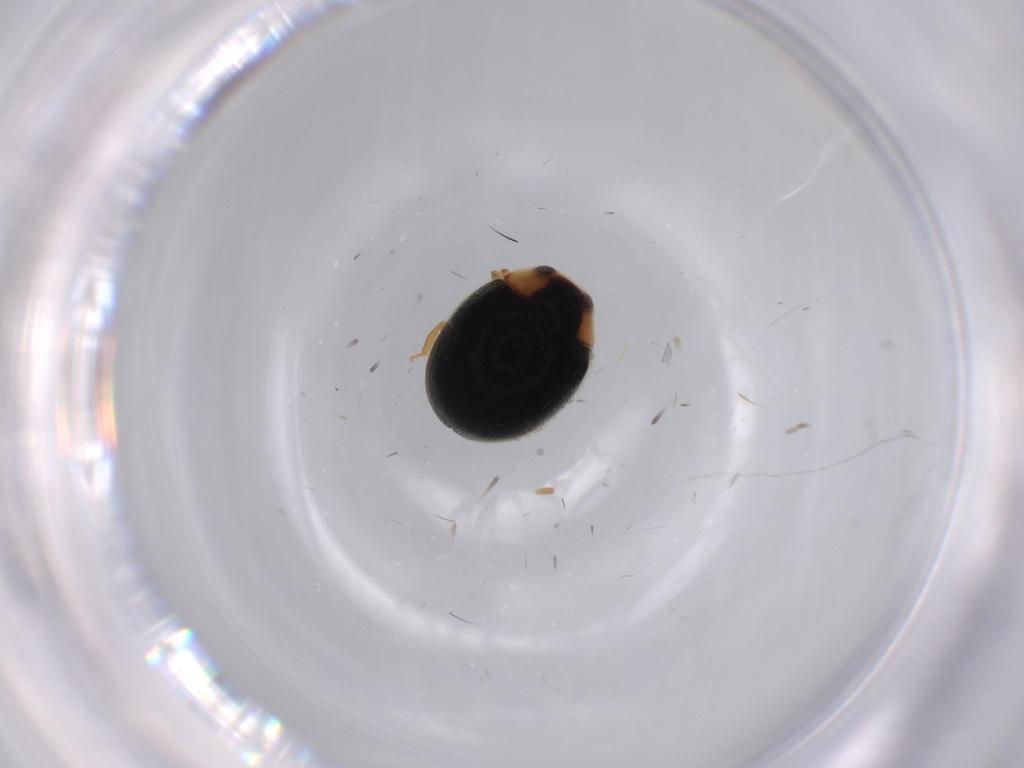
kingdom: Animalia
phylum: Arthropoda
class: Insecta
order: Coleoptera
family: Coccinellidae
